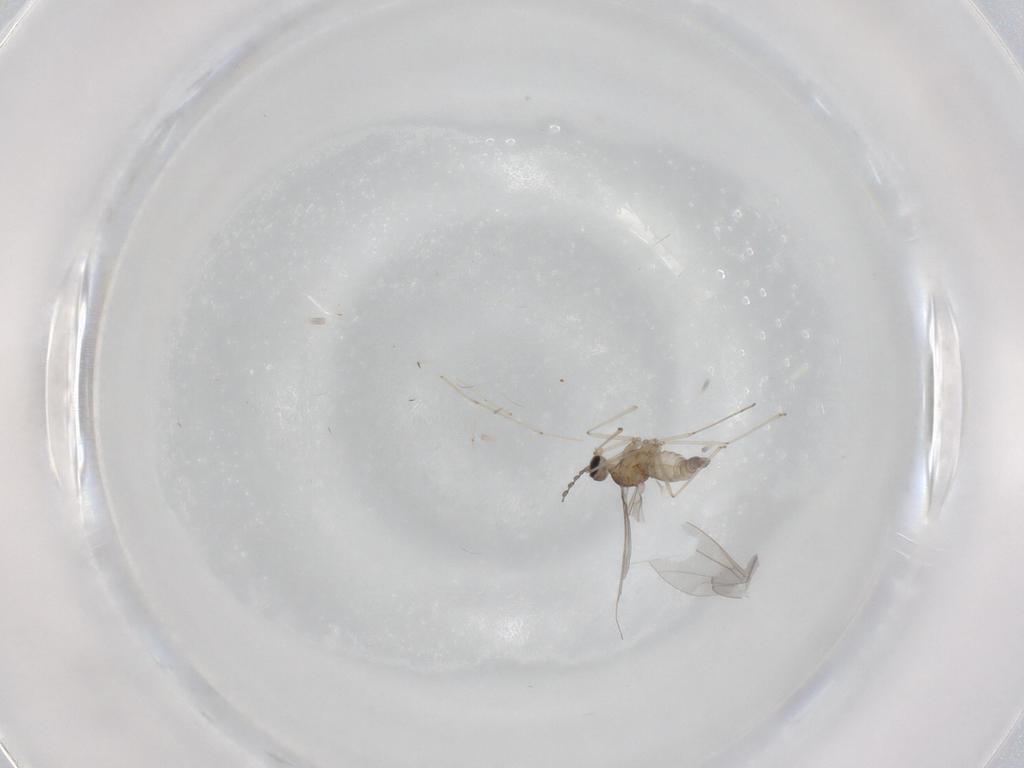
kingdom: Animalia
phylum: Arthropoda
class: Insecta
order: Diptera
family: Cecidomyiidae
